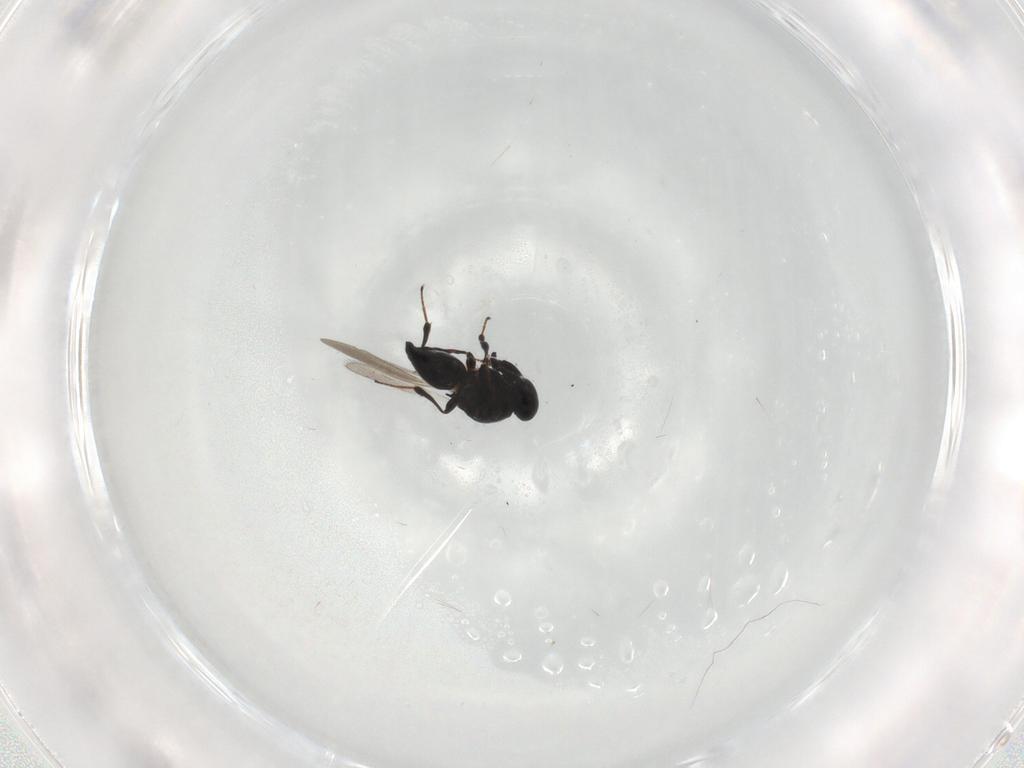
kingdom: Animalia
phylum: Arthropoda
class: Insecta
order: Hymenoptera
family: Platygastridae
